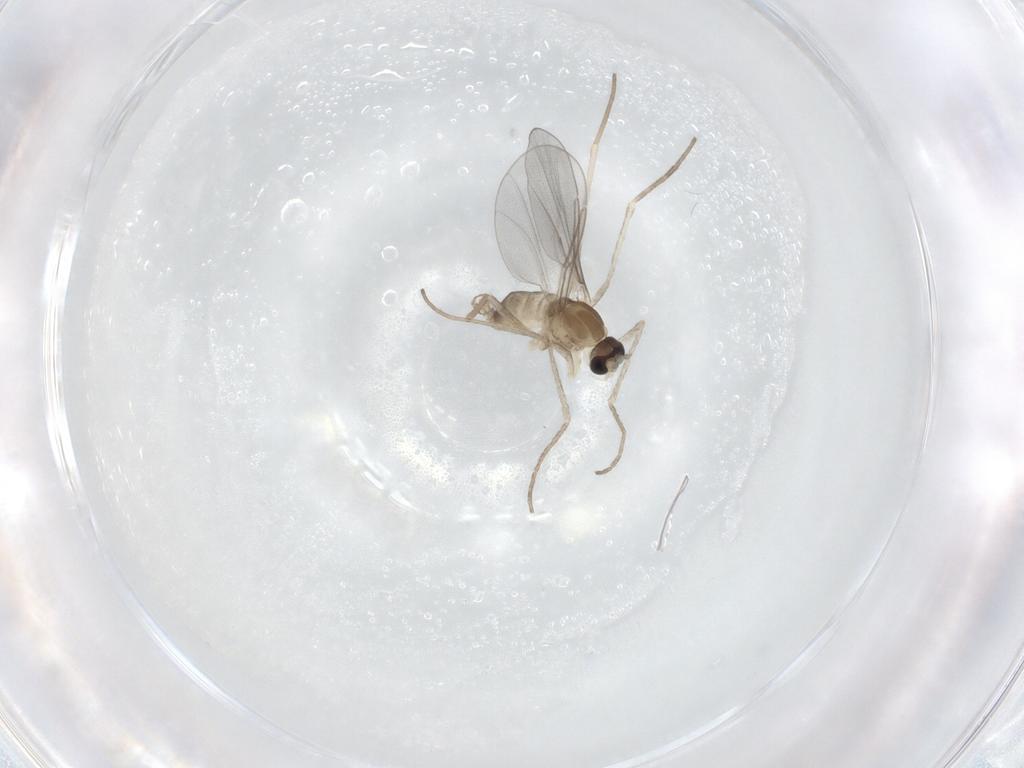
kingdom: Animalia
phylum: Arthropoda
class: Insecta
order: Diptera
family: Cecidomyiidae
